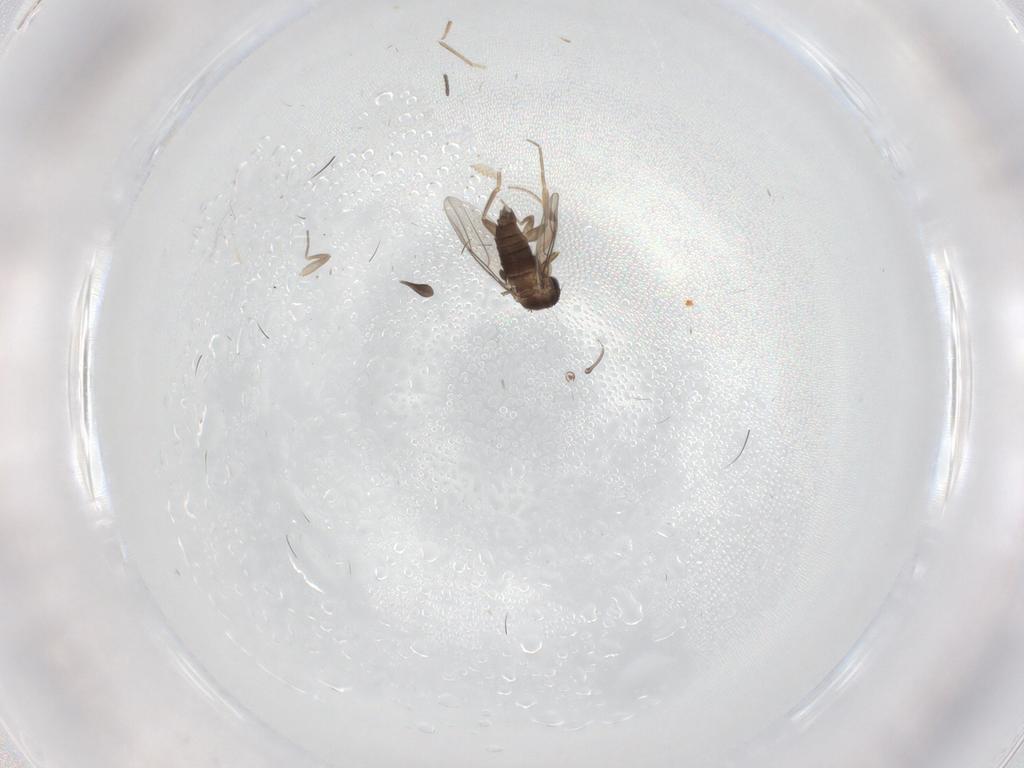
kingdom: Animalia
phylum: Arthropoda
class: Insecta
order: Diptera
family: Phoridae
